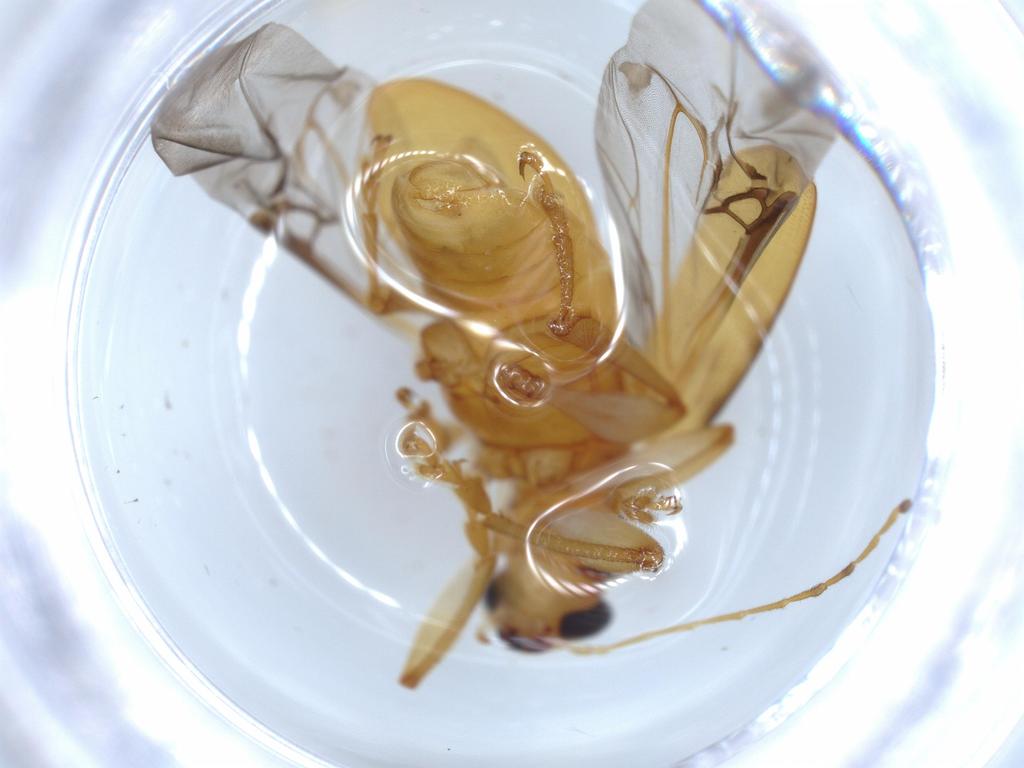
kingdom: Animalia
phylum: Arthropoda
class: Insecta
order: Coleoptera
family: Chrysomelidae
